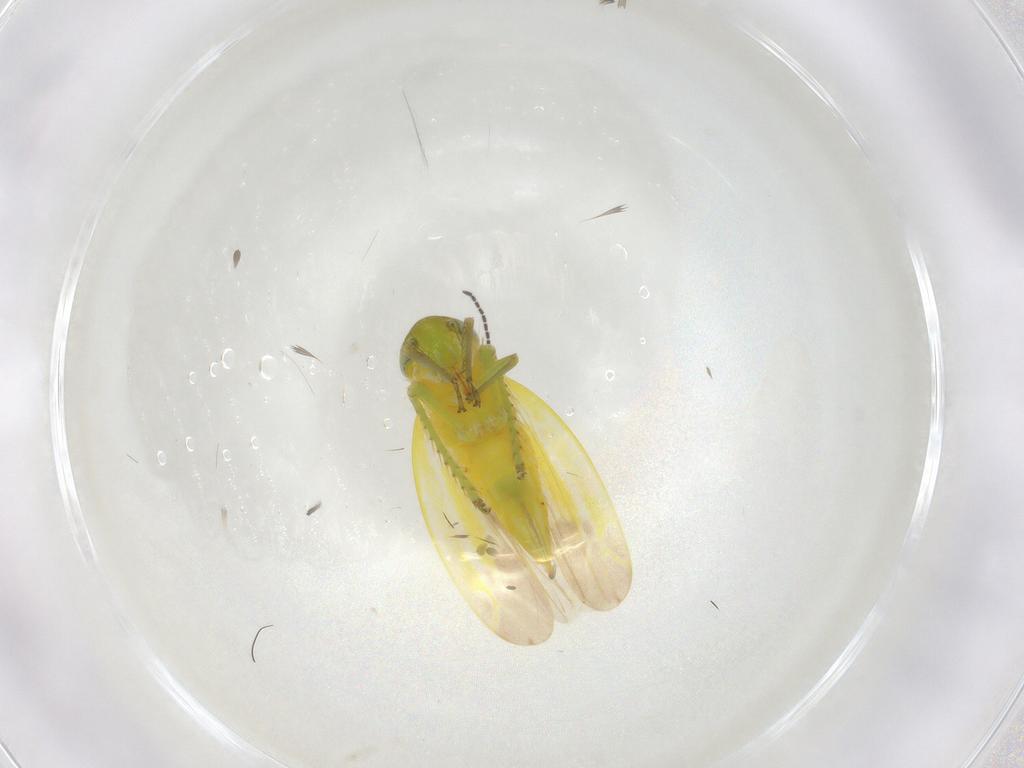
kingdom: Animalia
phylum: Arthropoda
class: Insecta
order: Hemiptera
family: Cicadellidae
